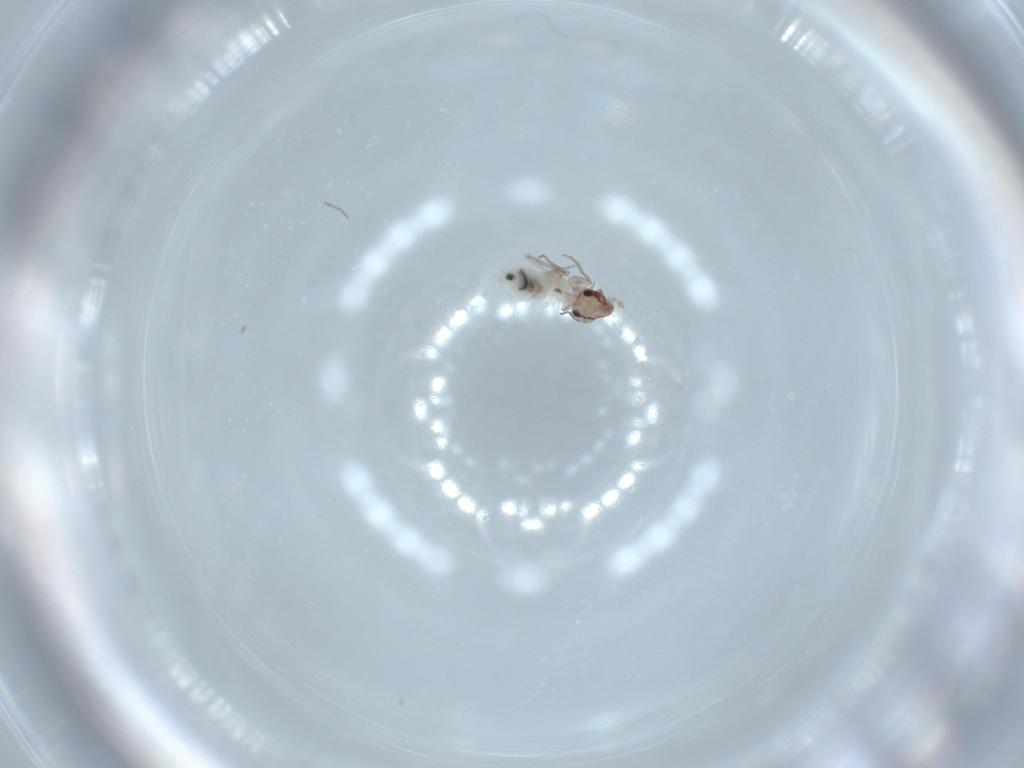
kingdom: Animalia
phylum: Arthropoda
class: Insecta
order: Psocodea
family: Lepidopsocidae
